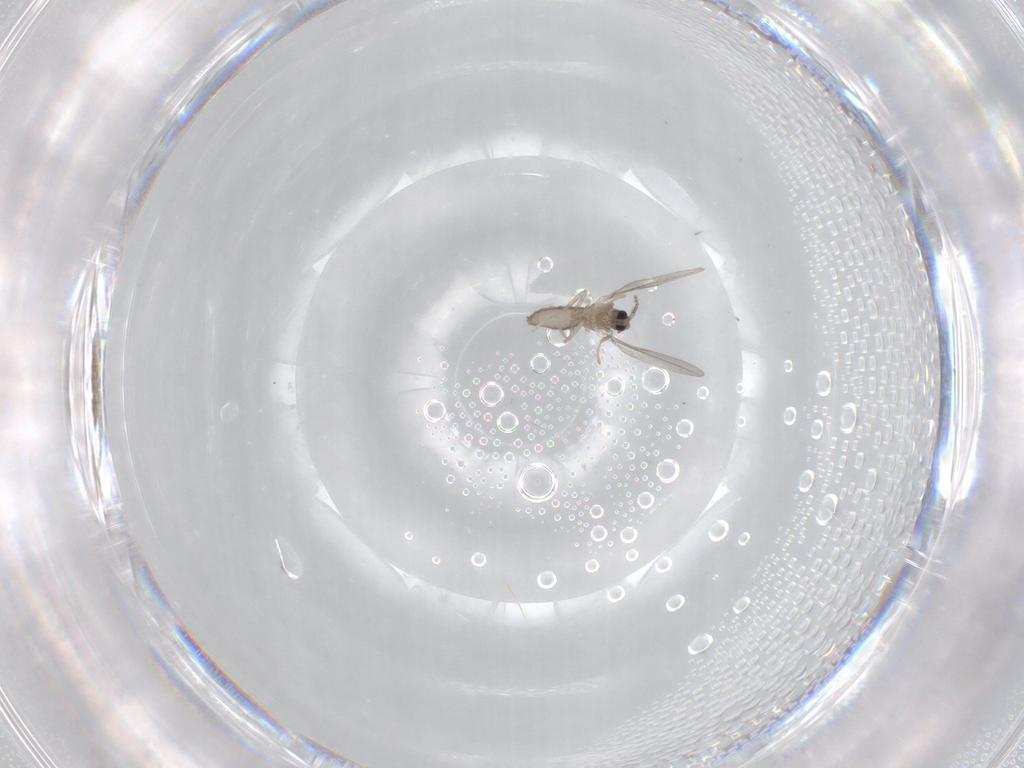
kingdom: Animalia
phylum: Arthropoda
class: Insecta
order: Diptera
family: Cecidomyiidae
